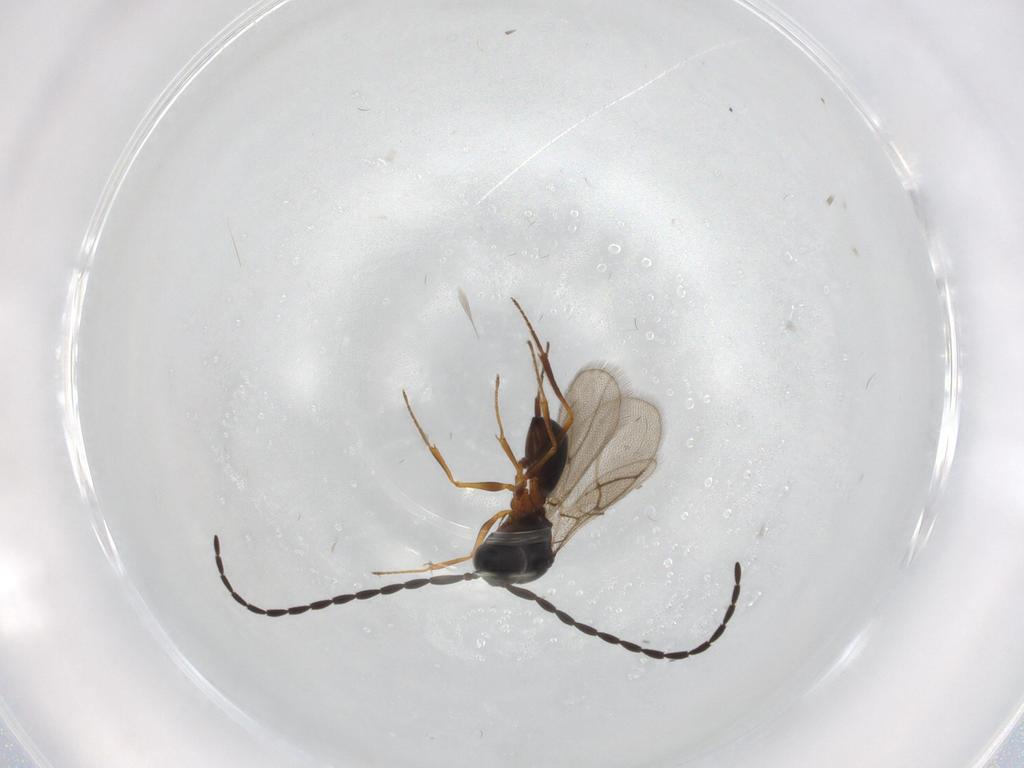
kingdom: Animalia
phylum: Arthropoda
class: Insecta
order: Hymenoptera
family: Figitidae
